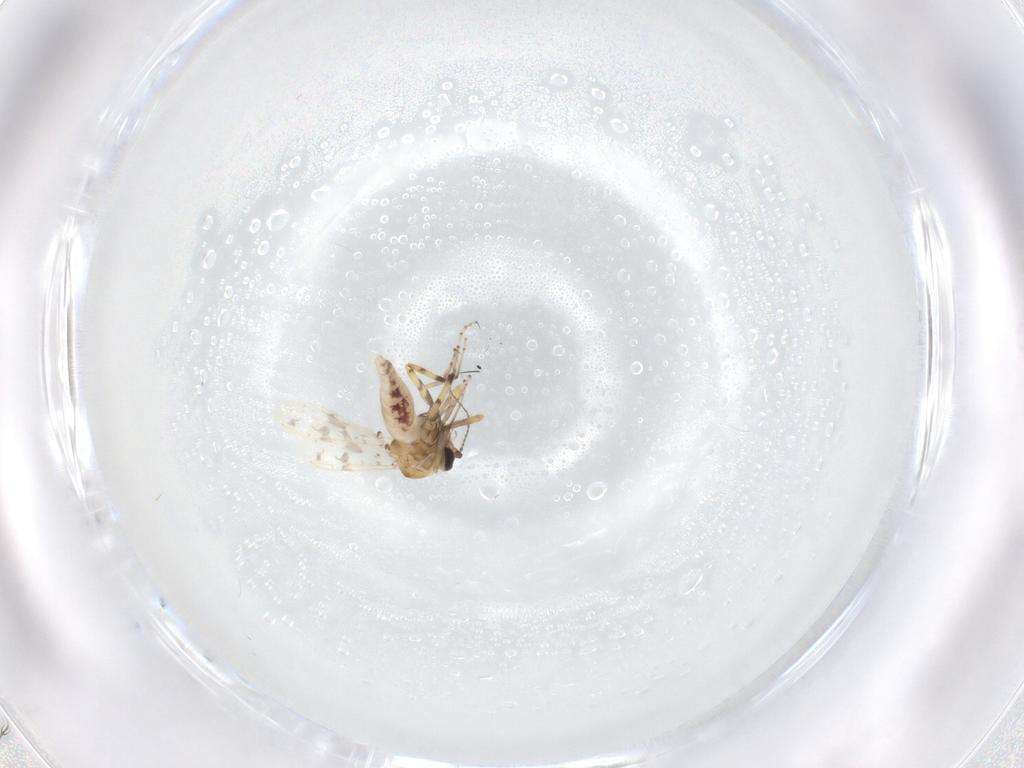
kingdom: Animalia
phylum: Arthropoda
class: Insecta
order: Diptera
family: Ceratopogonidae
